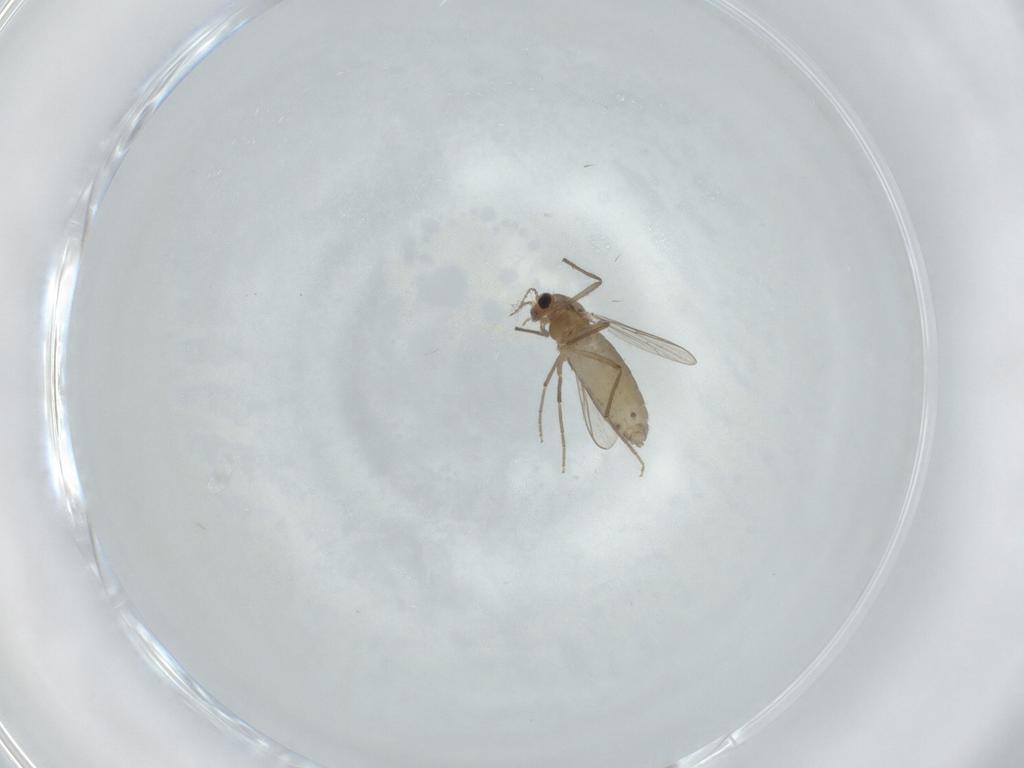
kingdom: Animalia
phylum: Arthropoda
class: Insecta
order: Diptera
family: Chironomidae
